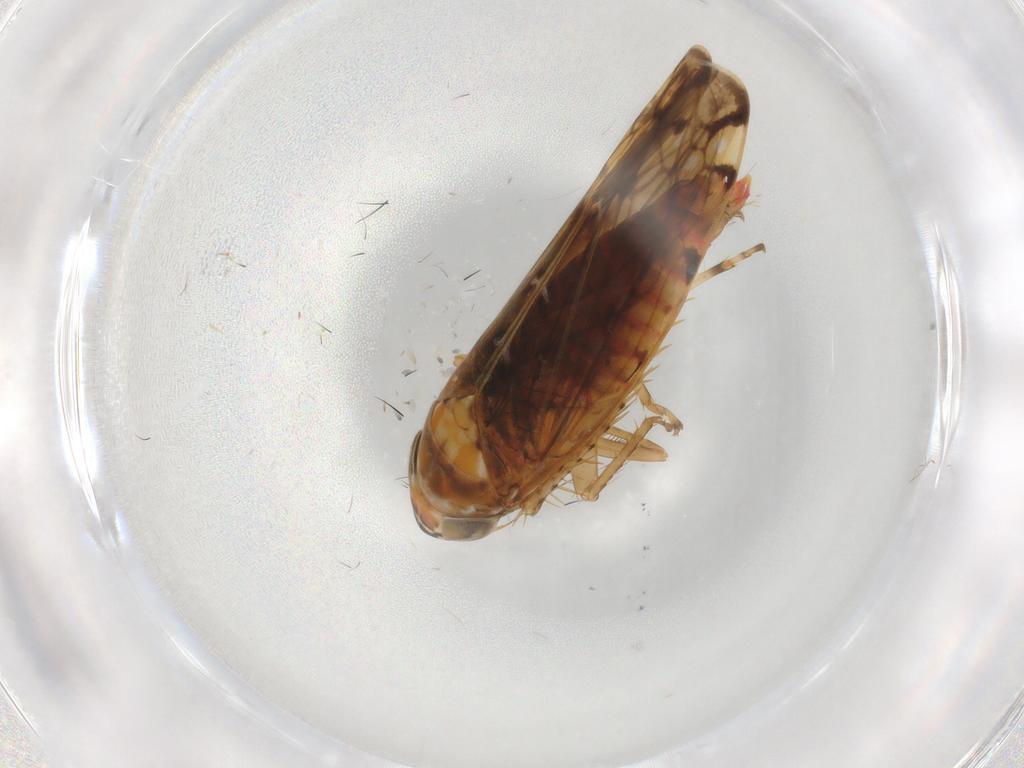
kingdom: Animalia
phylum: Arthropoda
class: Insecta
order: Hemiptera
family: Cicadellidae
